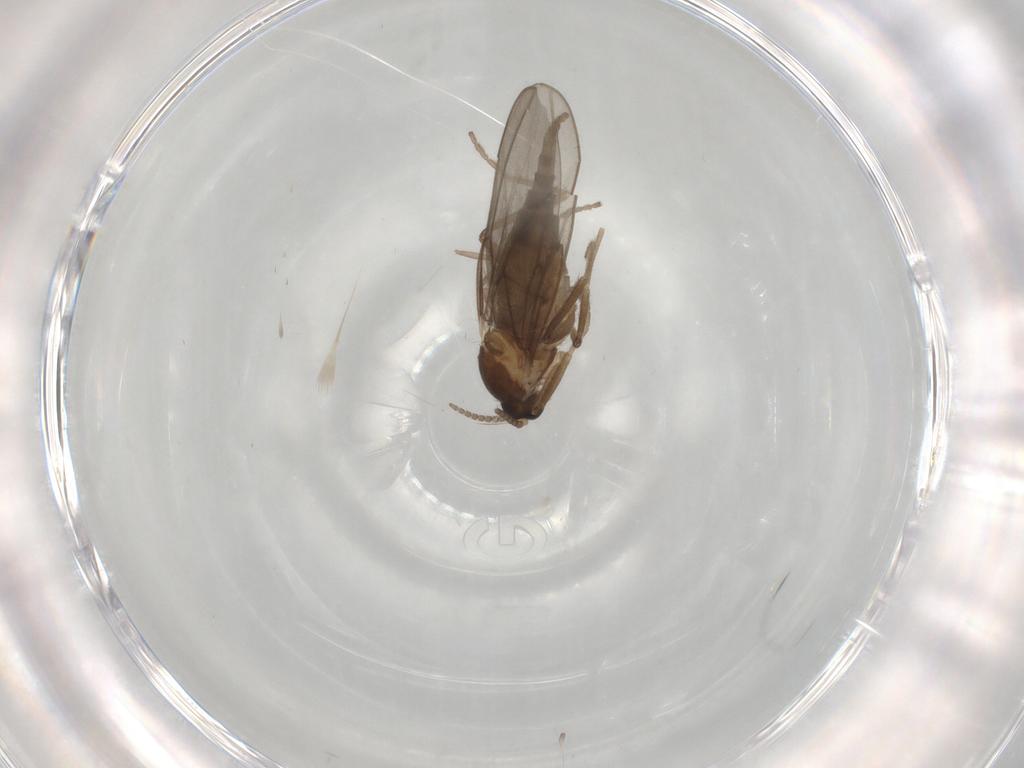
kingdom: Animalia
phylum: Arthropoda
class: Insecta
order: Diptera
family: Sciaridae
